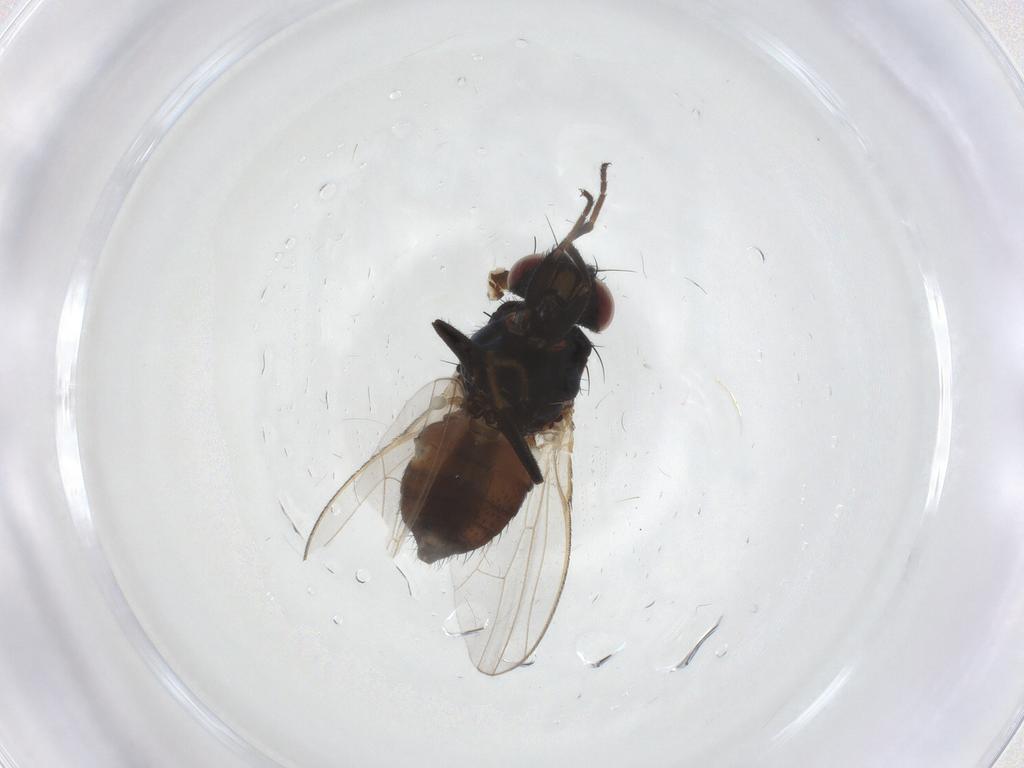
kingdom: Animalia
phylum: Arthropoda
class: Insecta
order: Diptera
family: Carnidae
